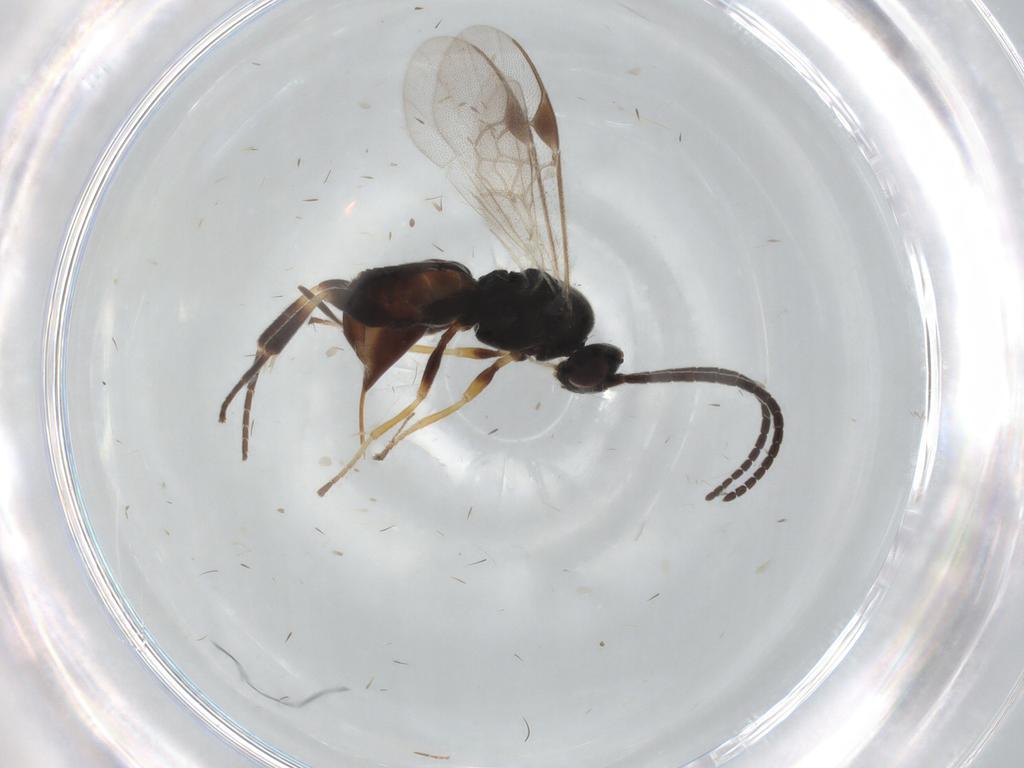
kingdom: Animalia
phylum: Arthropoda
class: Insecta
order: Hymenoptera
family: Braconidae
